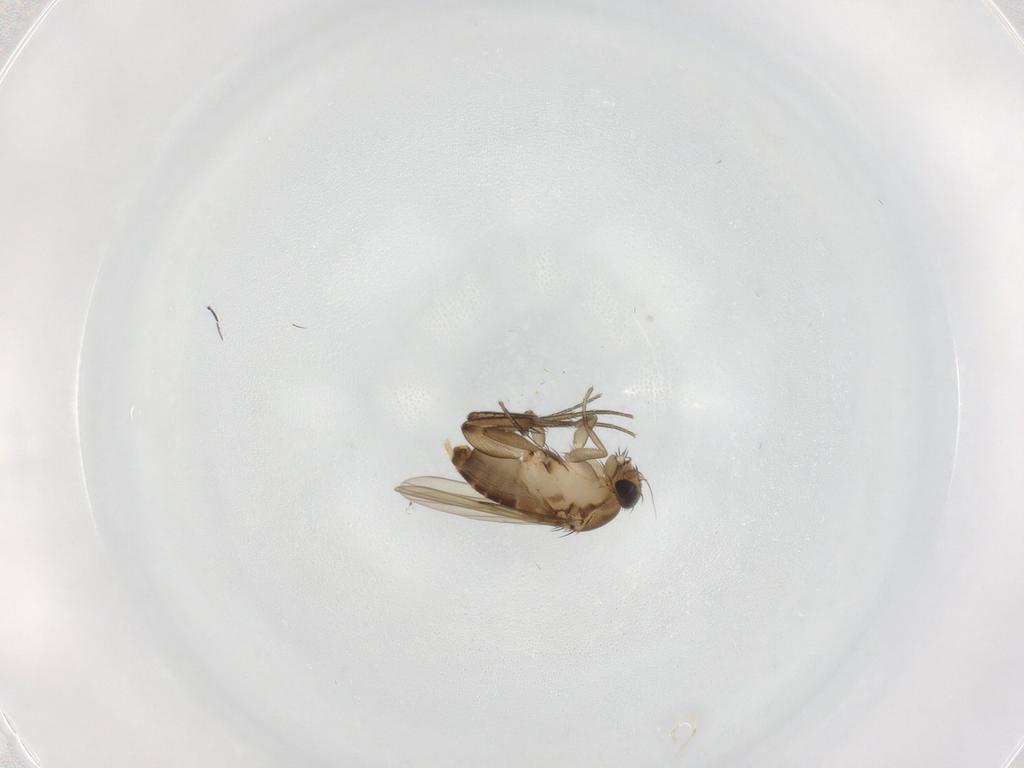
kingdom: Animalia
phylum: Arthropoda
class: Insecta
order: Diptera
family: Phoridae
